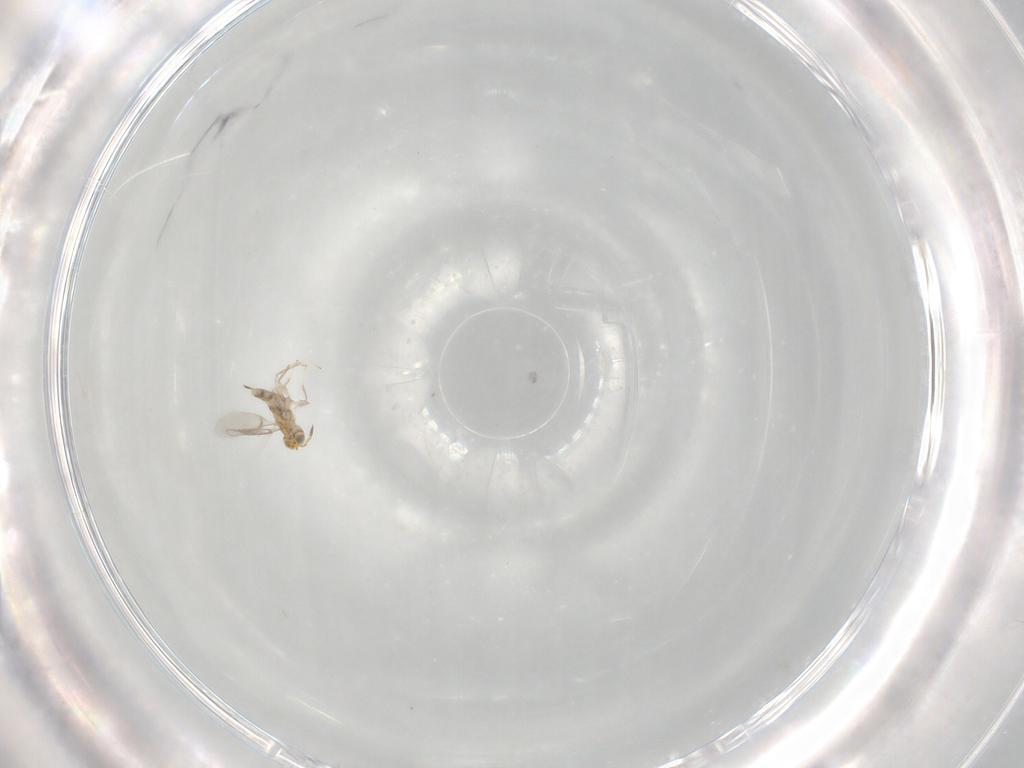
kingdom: Animalia
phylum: Arthropoda
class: Insecta
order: Hymenoptera
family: Aphelinidae
